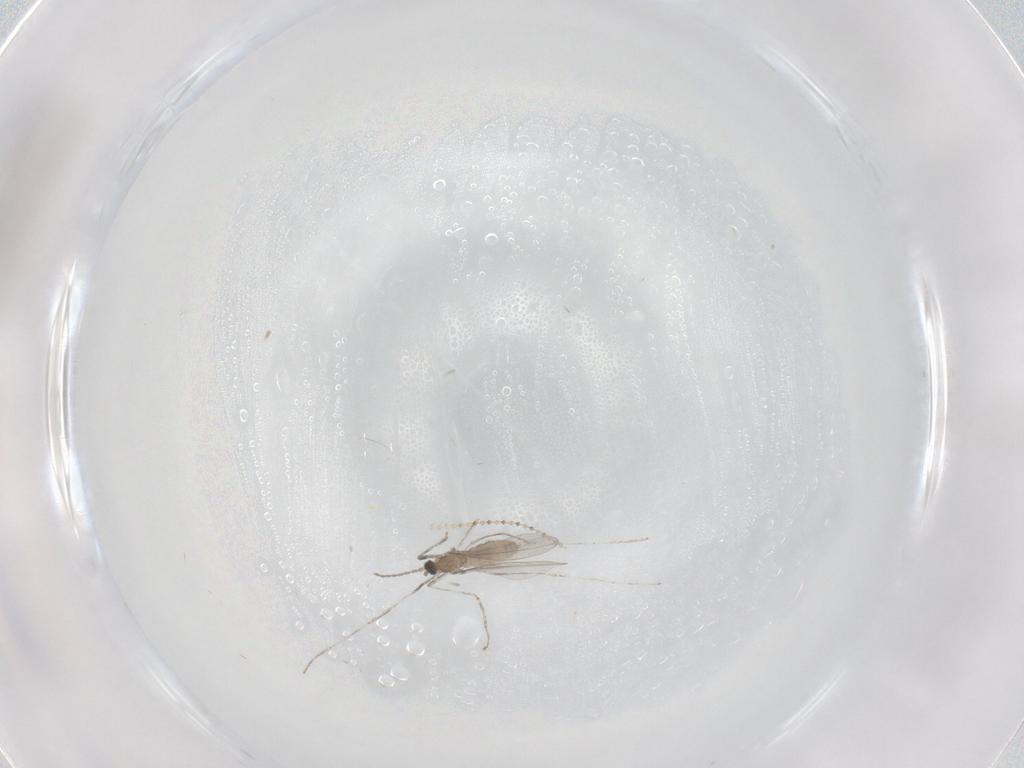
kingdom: Animalia
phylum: Arthropoda
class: Insecta
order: Diptera
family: Cecidomyiidae
